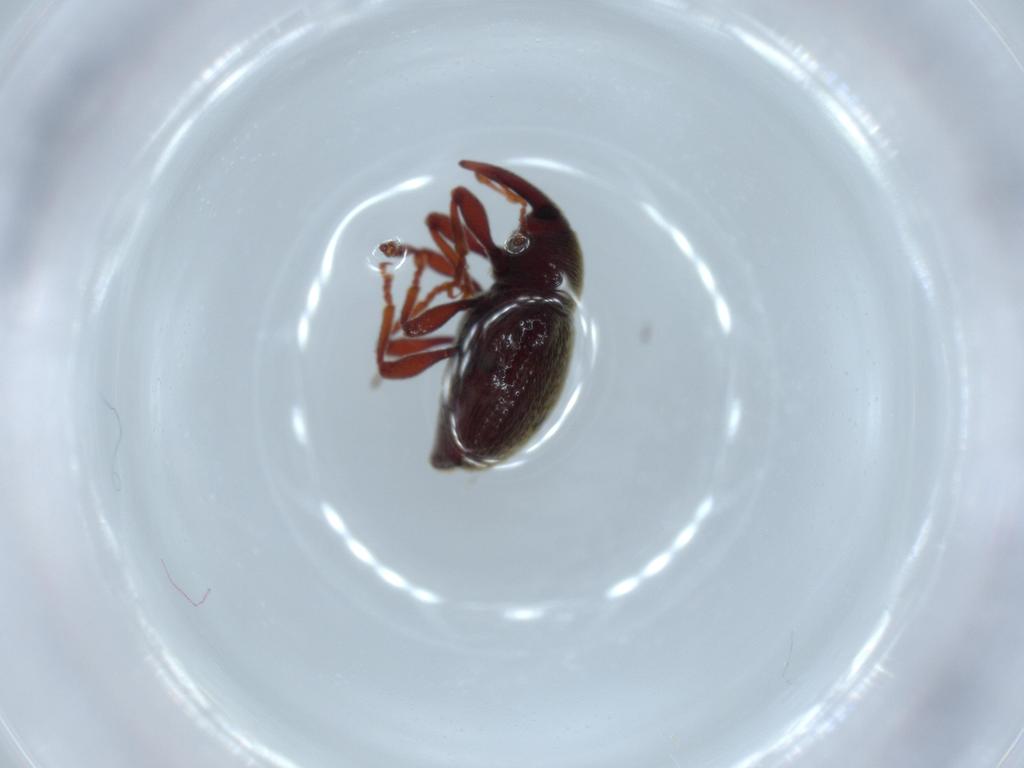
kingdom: Animalia
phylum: Arthropoda
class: Insecta
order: Coleoptera
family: Curculionidae
